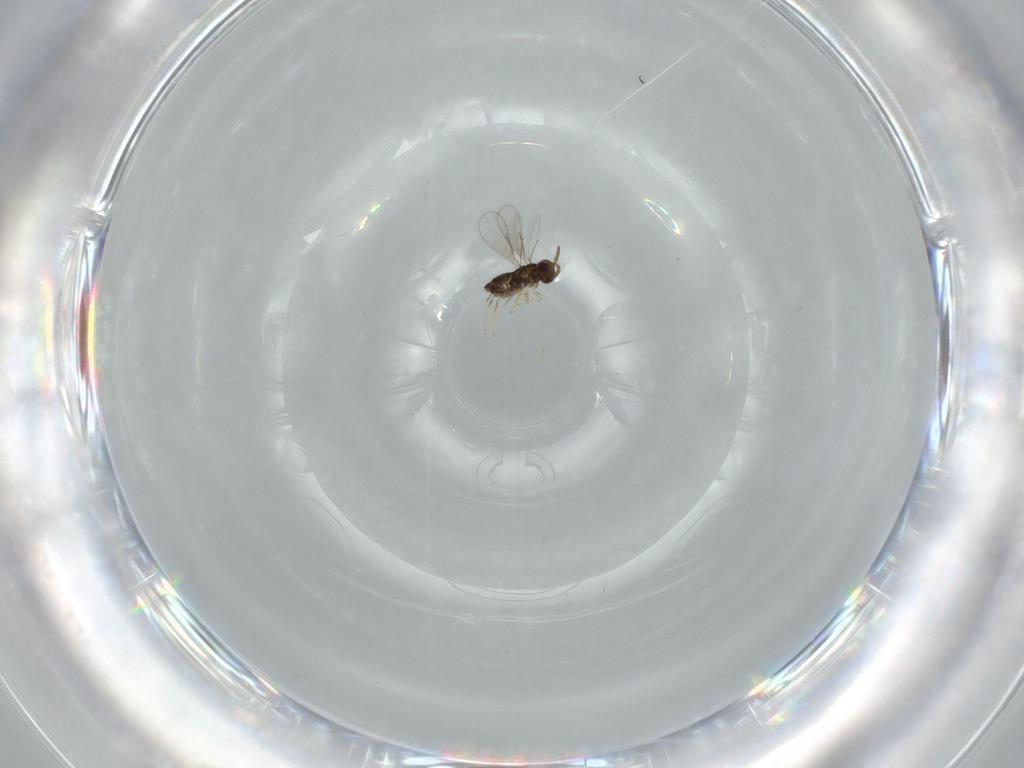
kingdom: Animalia
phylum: Arthropoda
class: Insecta
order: Hymenoptera
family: Aphelinidae
